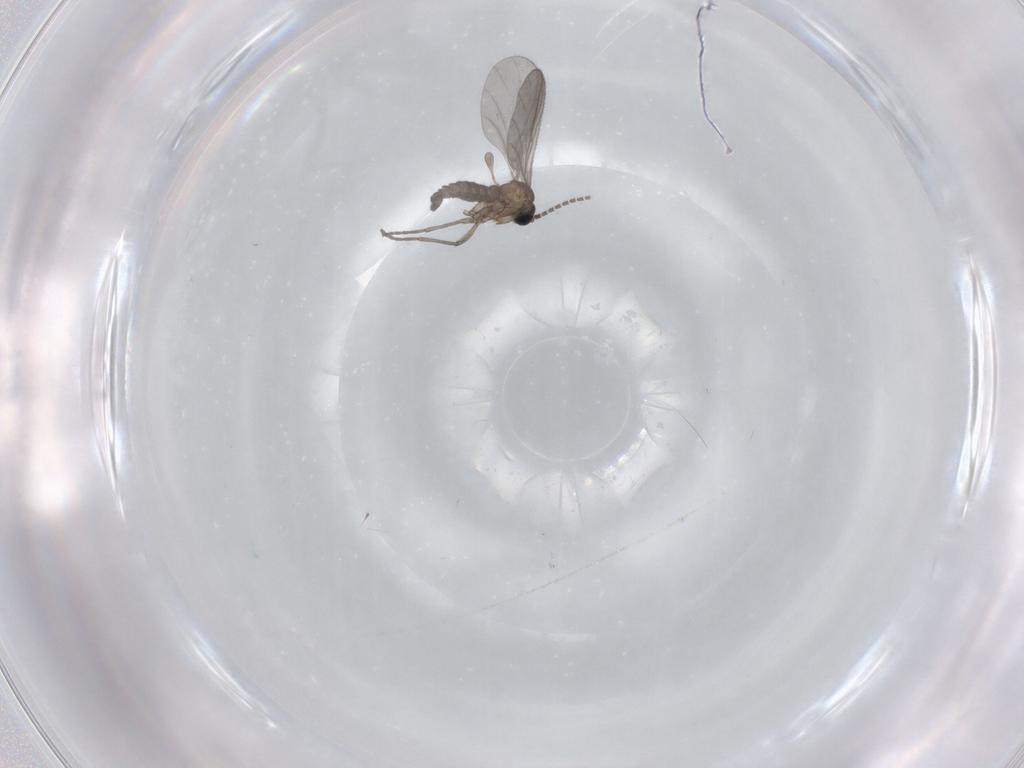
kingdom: Animalia
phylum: Arthropoda
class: Insecta
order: Diptera
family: Sciaridae
